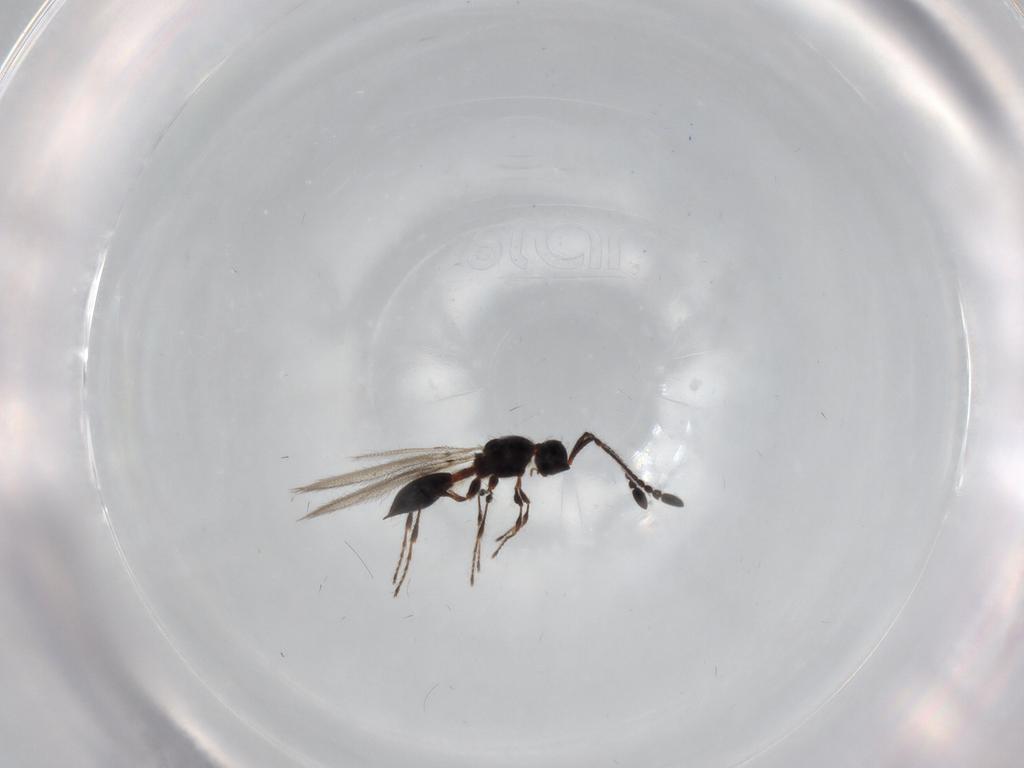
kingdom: Animalia
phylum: Arthropoda
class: Insecta
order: Hymenoptera
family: Diapriidae
